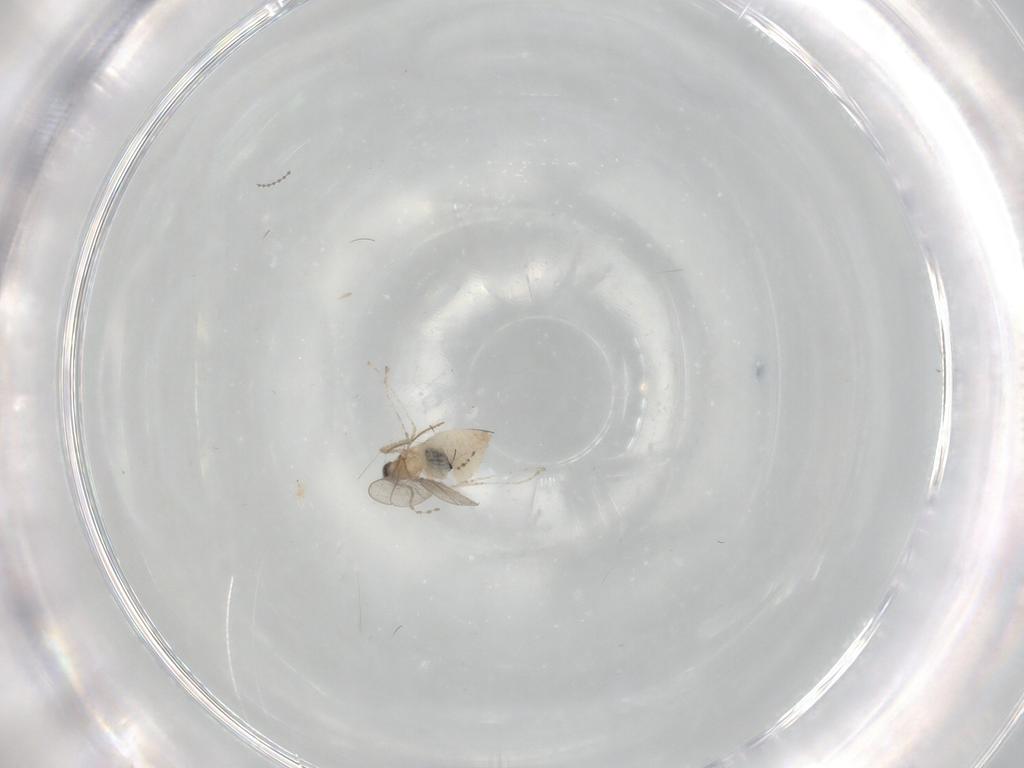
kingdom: Animalia
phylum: Arthropoda
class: Insecta
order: Diptera
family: Cecidomyiidae
